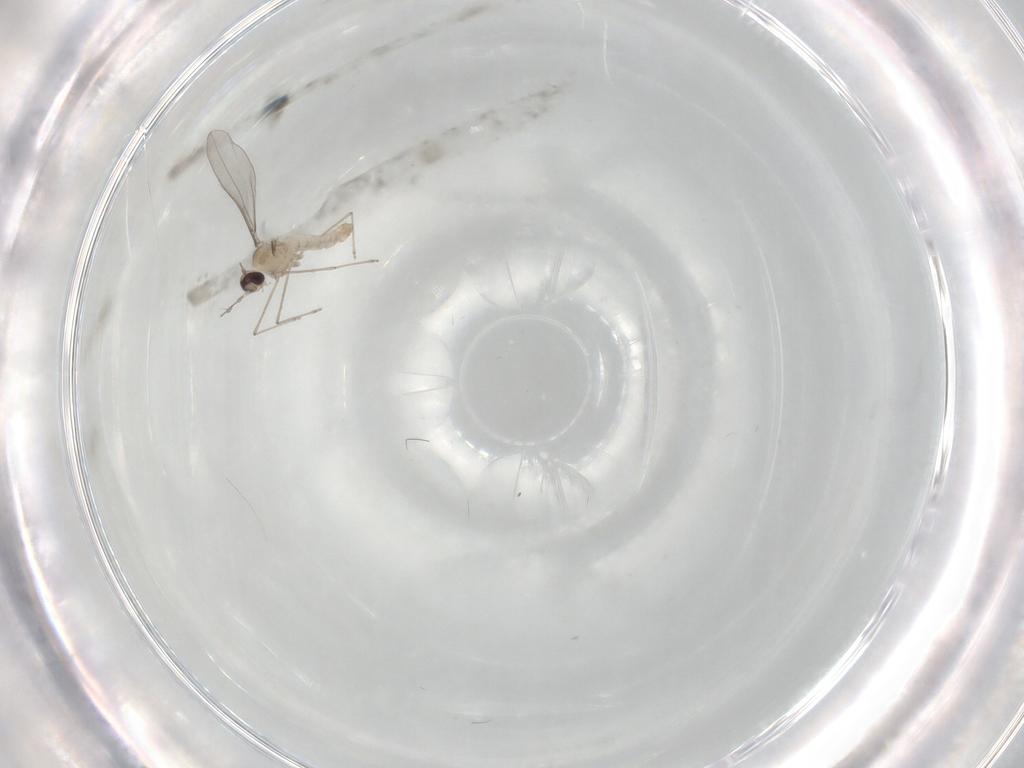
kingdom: Animalia
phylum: Arthropoda
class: Insecta
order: Diptera
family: Cecidomyiidae
